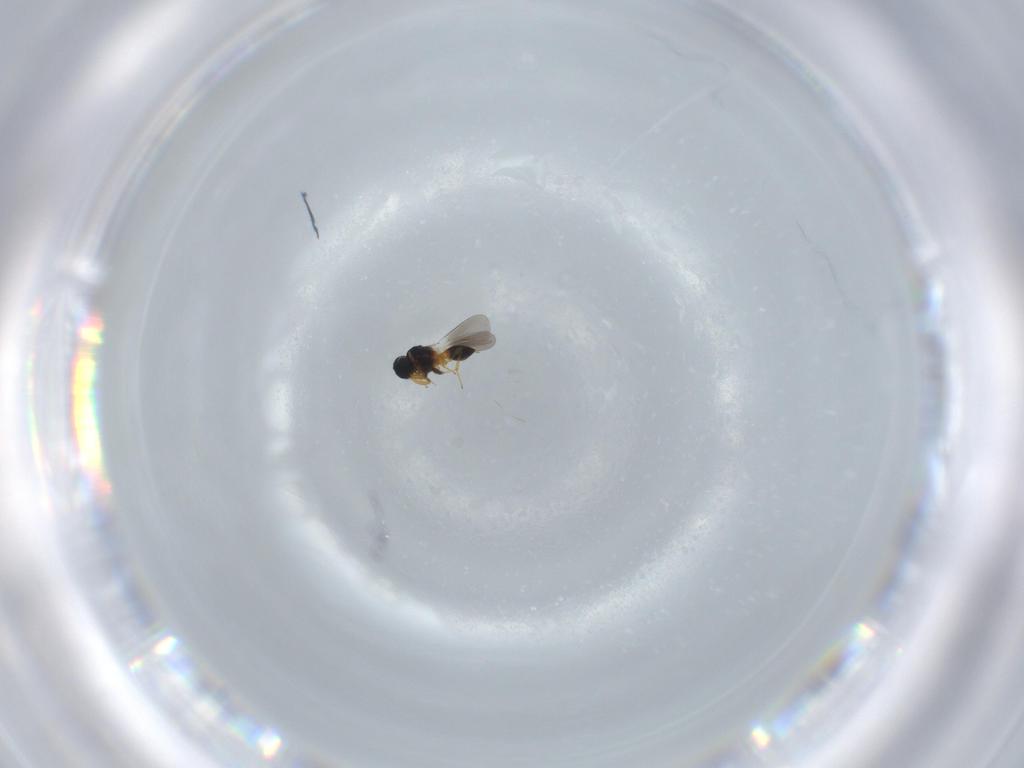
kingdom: Animalia
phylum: Arthropoda
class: Insecta
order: Hymenoptera
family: Platygastridae
